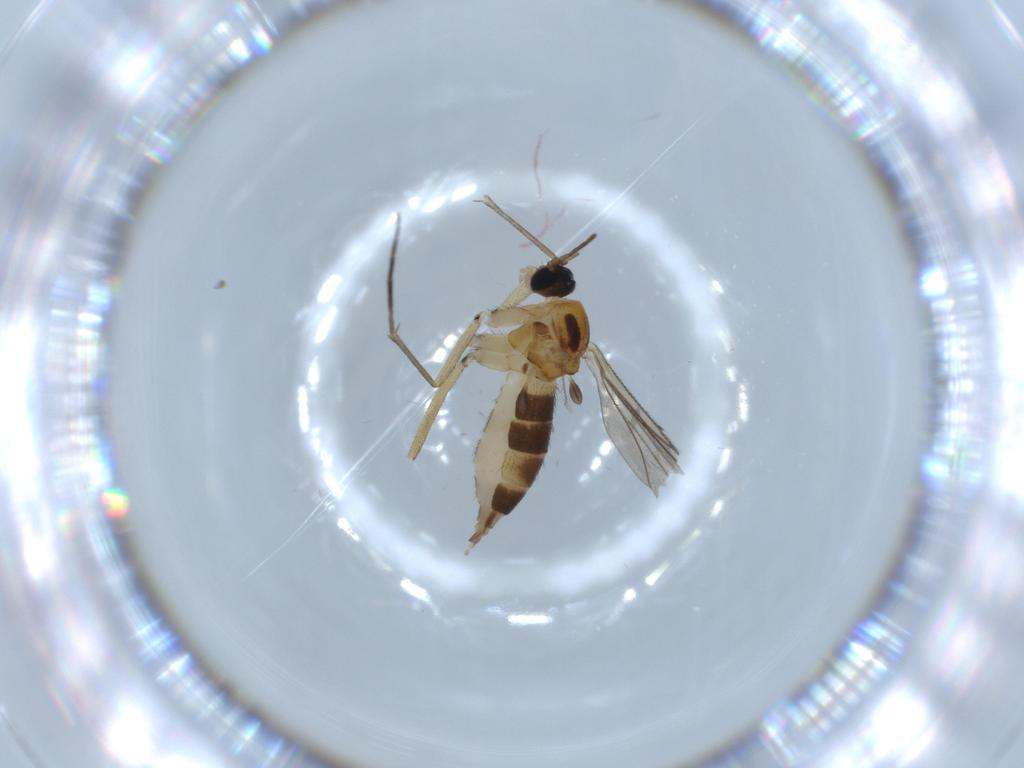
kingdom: Animalia
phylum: Arthropoda
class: Insecta
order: Diptera
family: Sciaridae
